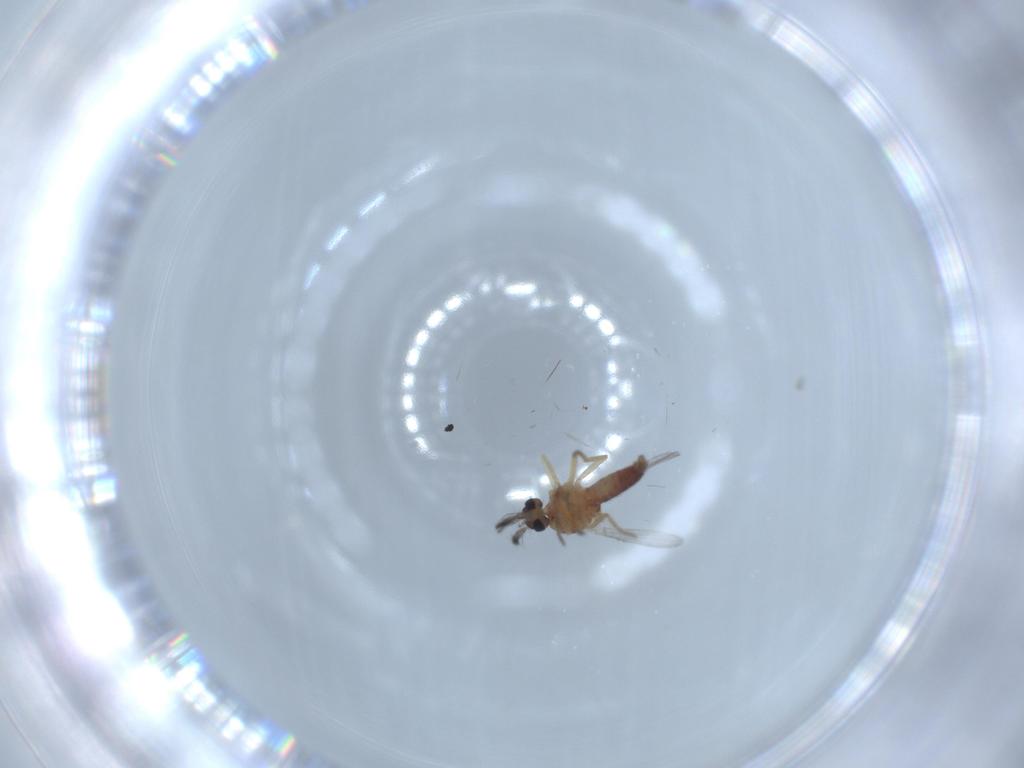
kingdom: Animalia
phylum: Arthropoda
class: Insecta
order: Diptera
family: Ceratopogonidae
